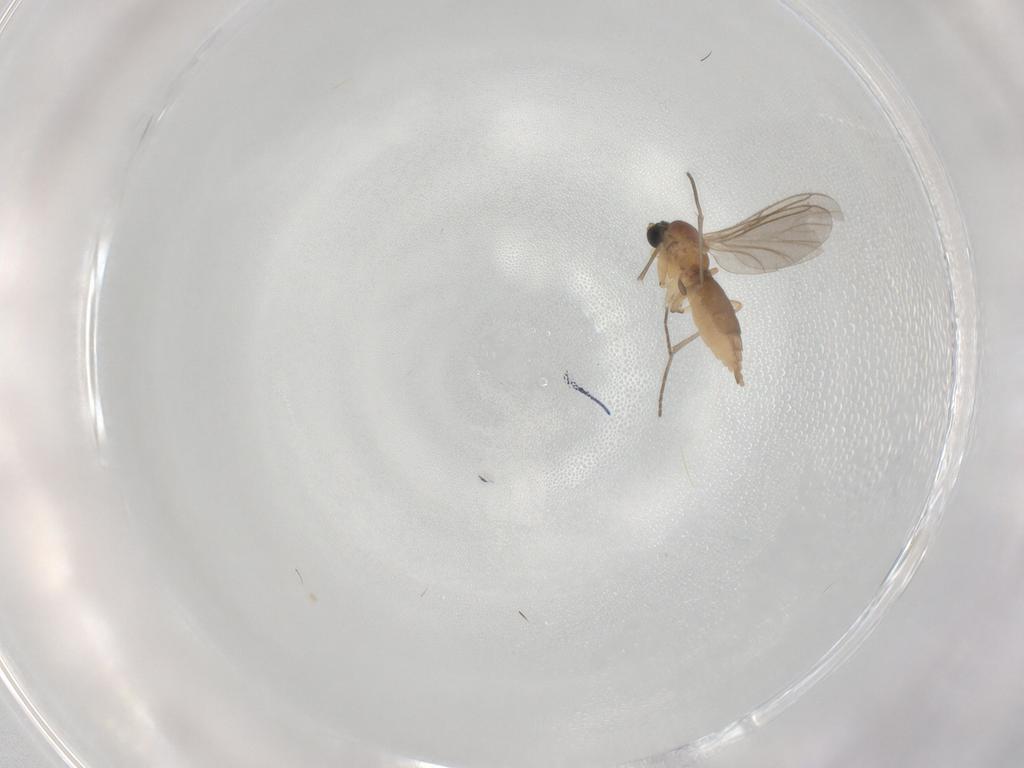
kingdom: Animalia
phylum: Arthropoda
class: Insecta
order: Diptera
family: Sciaridae
